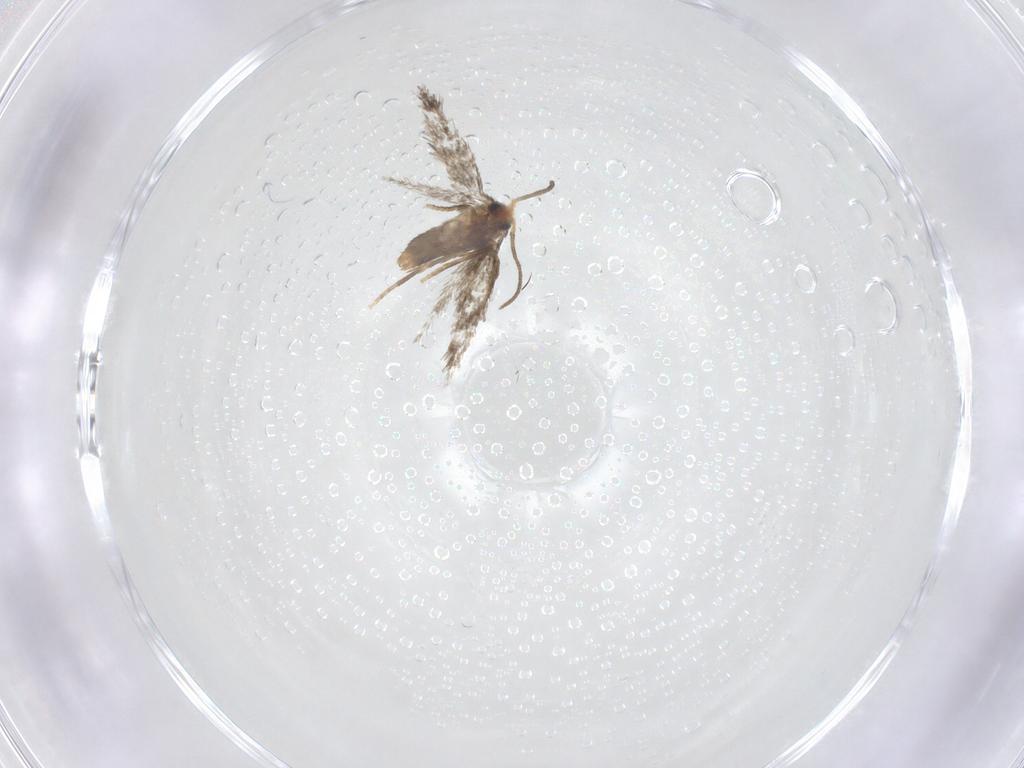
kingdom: Animalia
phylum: Arthropoda
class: Insecta
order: Lepidoptera
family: Nepticulidae
